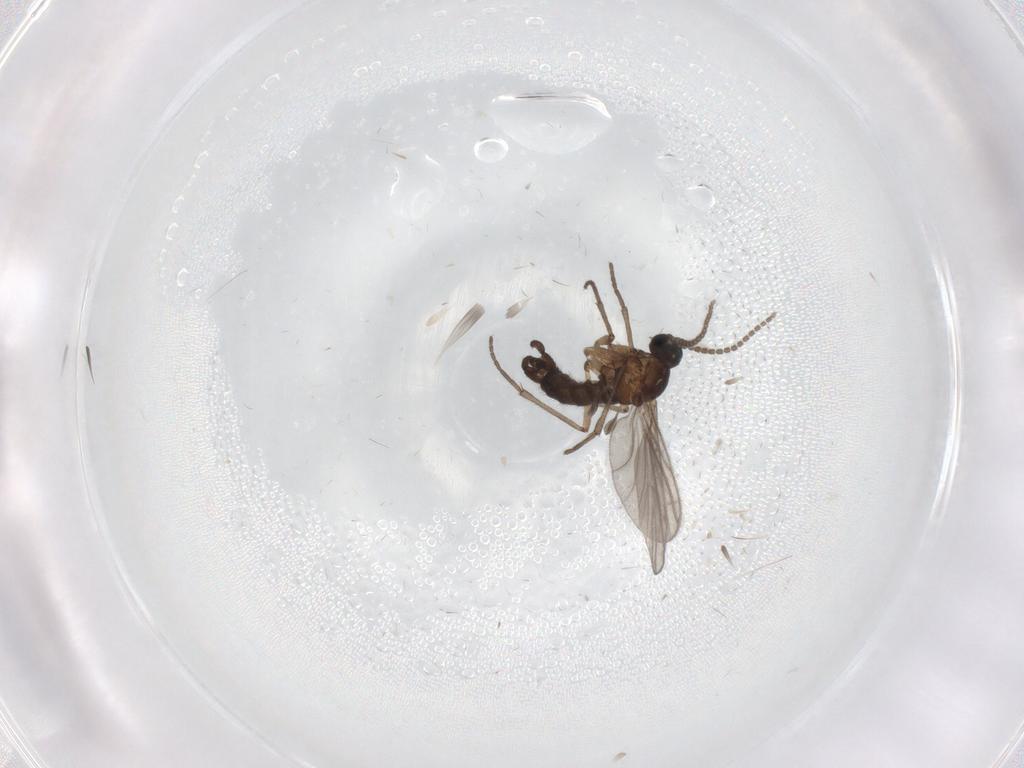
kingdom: Animalia
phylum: Arthropoda
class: Insecta
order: Diptera
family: Sciaridae
